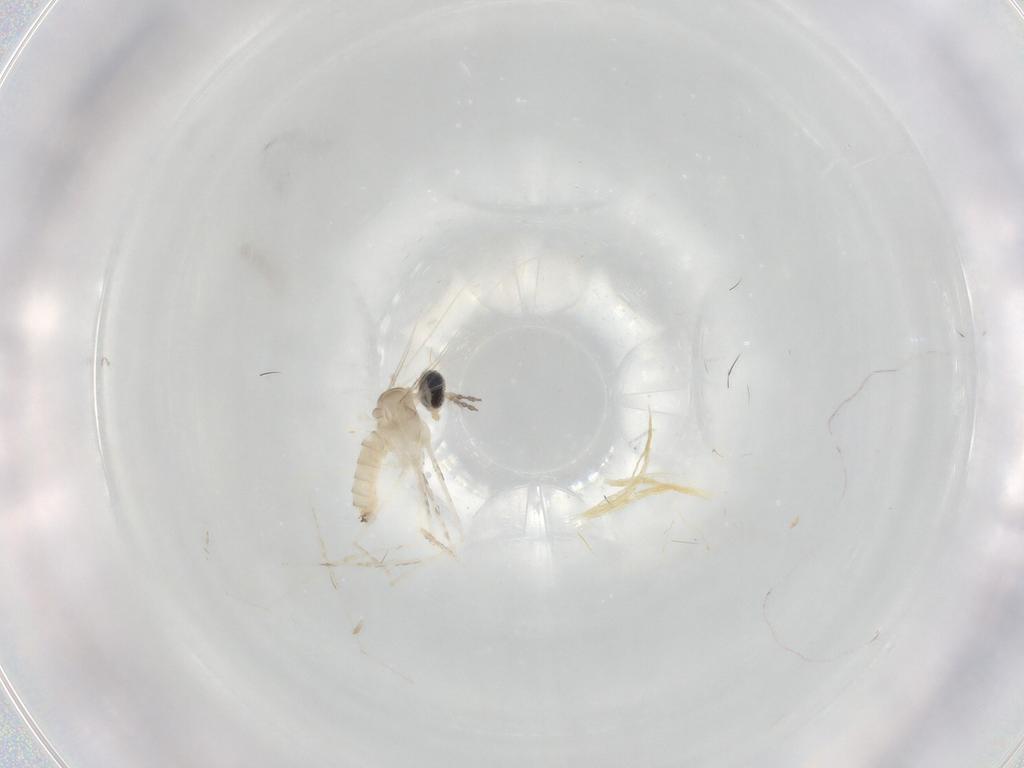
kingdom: Animalia
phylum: Arthropoda
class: Insecta
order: Diptera
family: Cecidomyiidae
